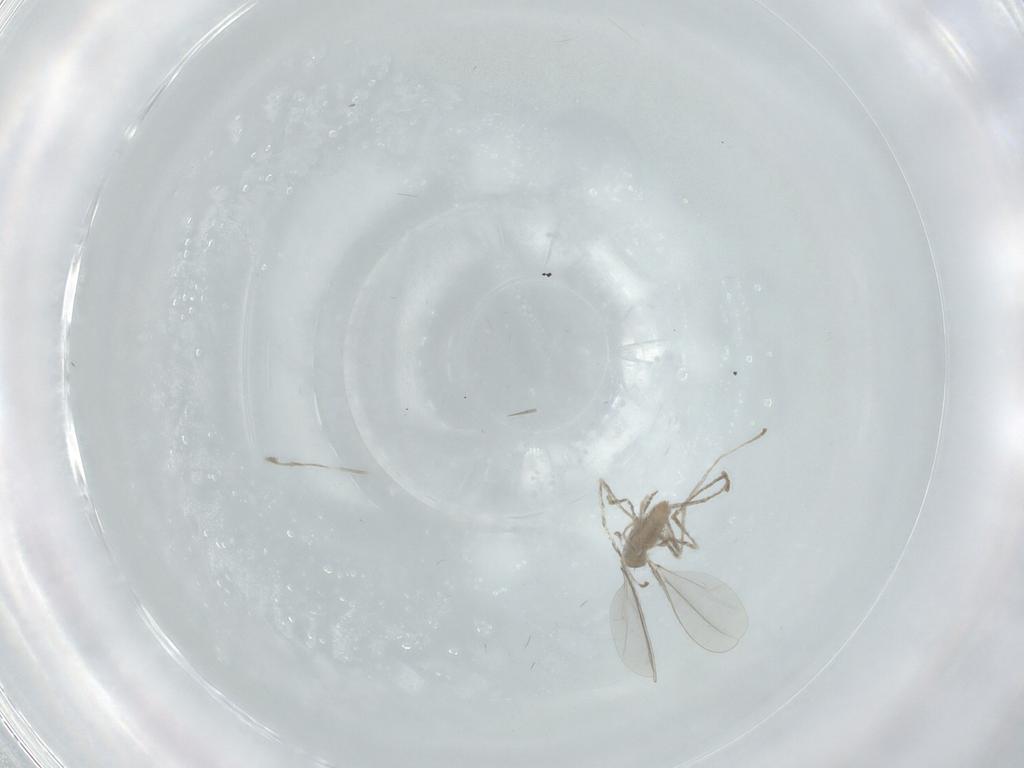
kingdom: Animalia
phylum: Arthropoda
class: Insecta
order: Diptera
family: Cecidomyiidae
